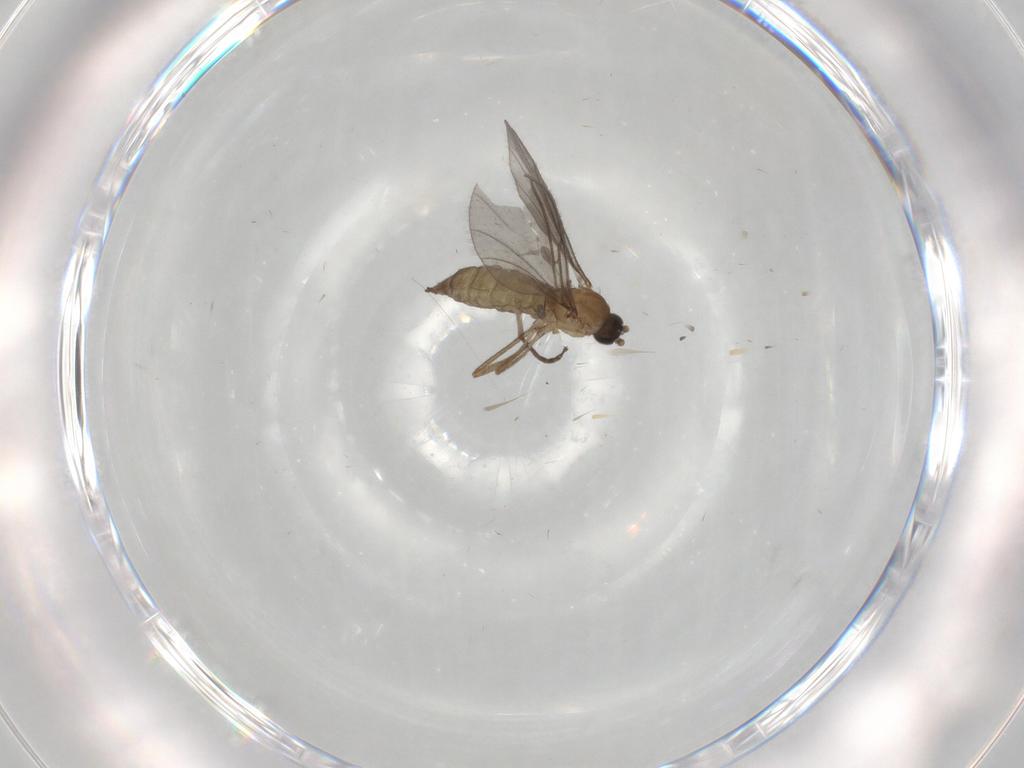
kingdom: Animalia
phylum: Arthropoda
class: Insecta
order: Diptera
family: Sciaridae
